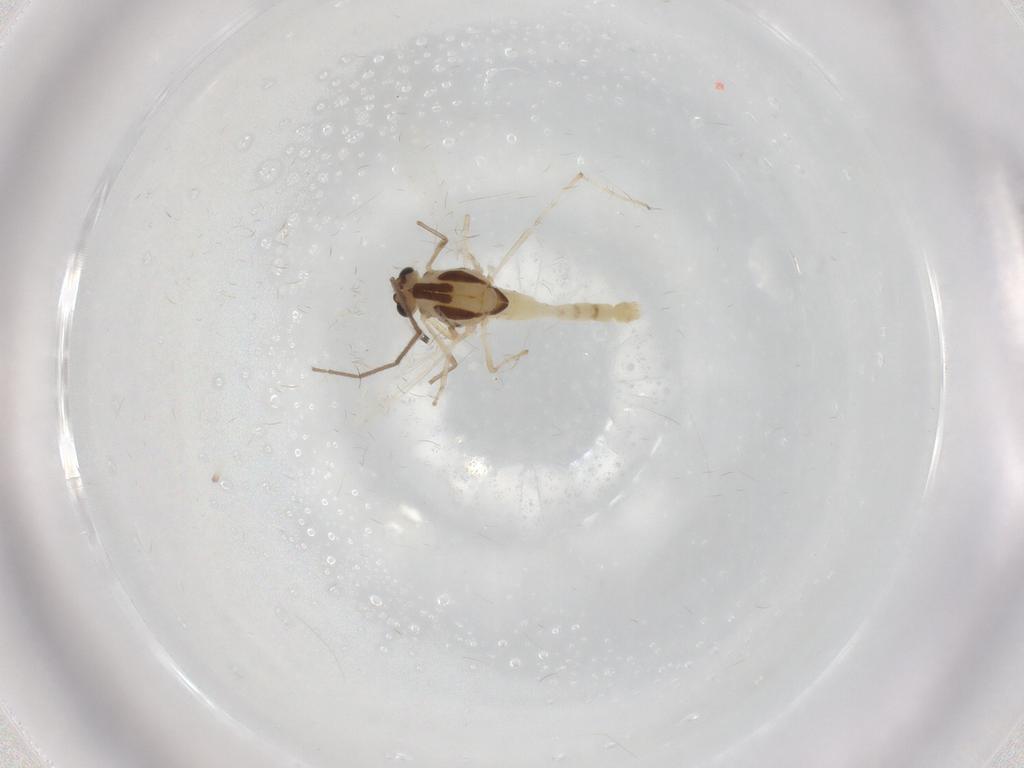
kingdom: Animalia
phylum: Arthropoda
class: Insecta
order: Diptera
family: Chironomidae
